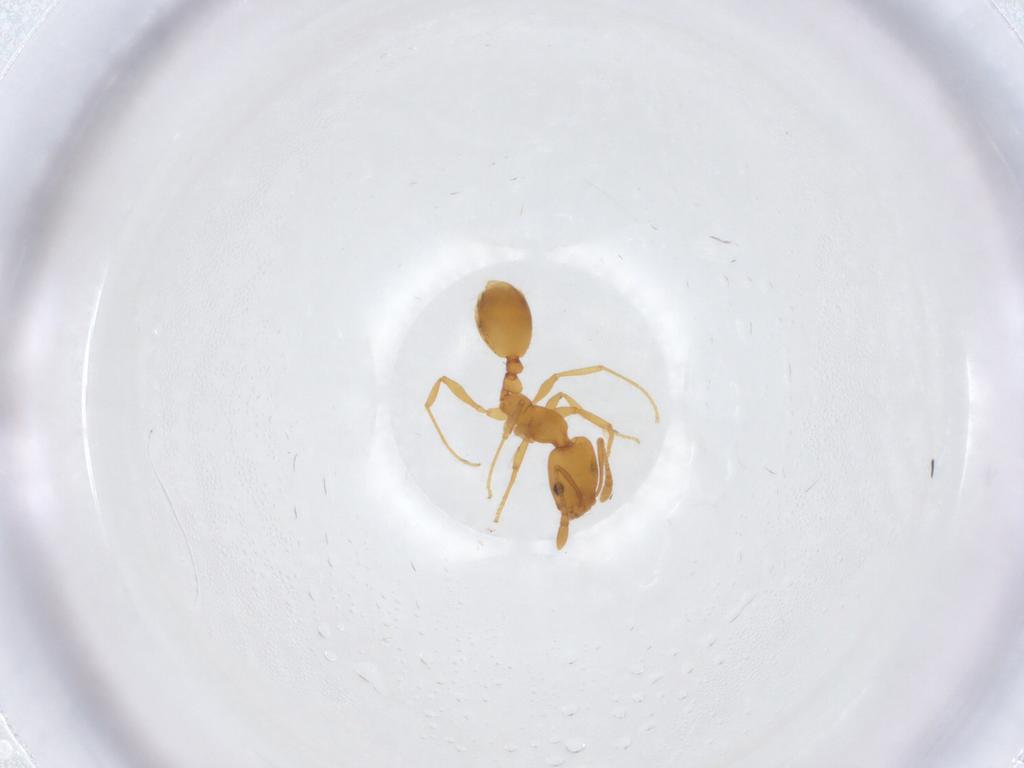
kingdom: Animalia
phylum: Arthropoda
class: Insecta
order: Hymenoptera
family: Formicidae
